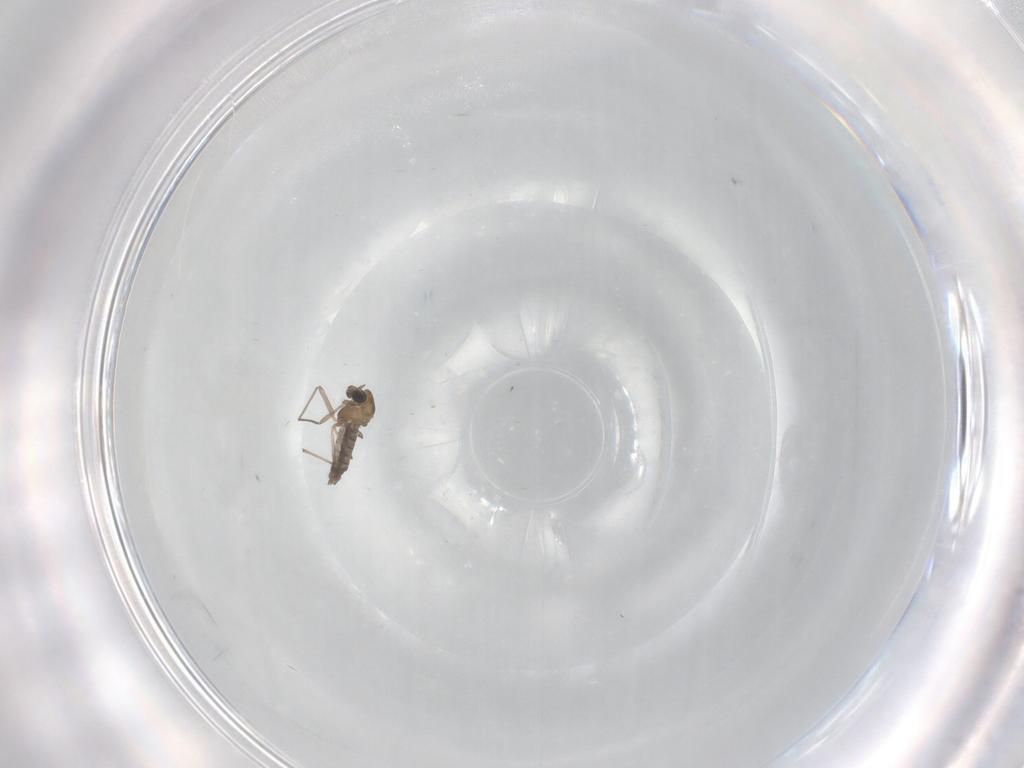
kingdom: Animalia
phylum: Arthropoda
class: Insecta
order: Diptera
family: Chironomidae
